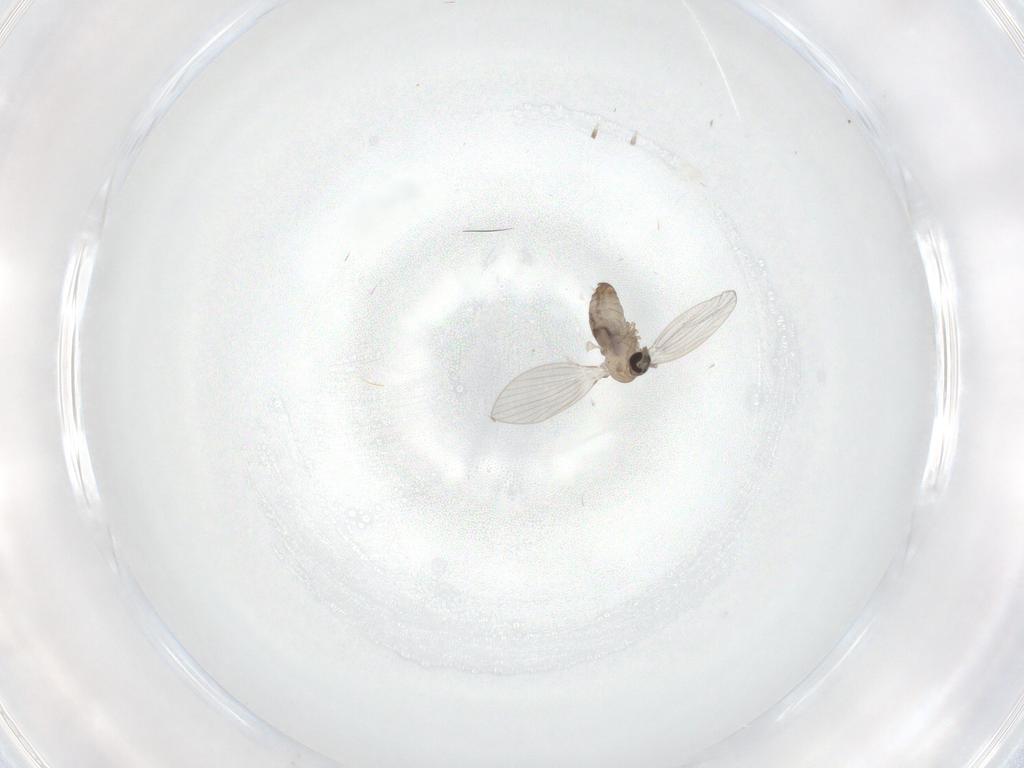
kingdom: Animalia
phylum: Arthropoda
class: Insecta
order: Diptera
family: Psychodidae
